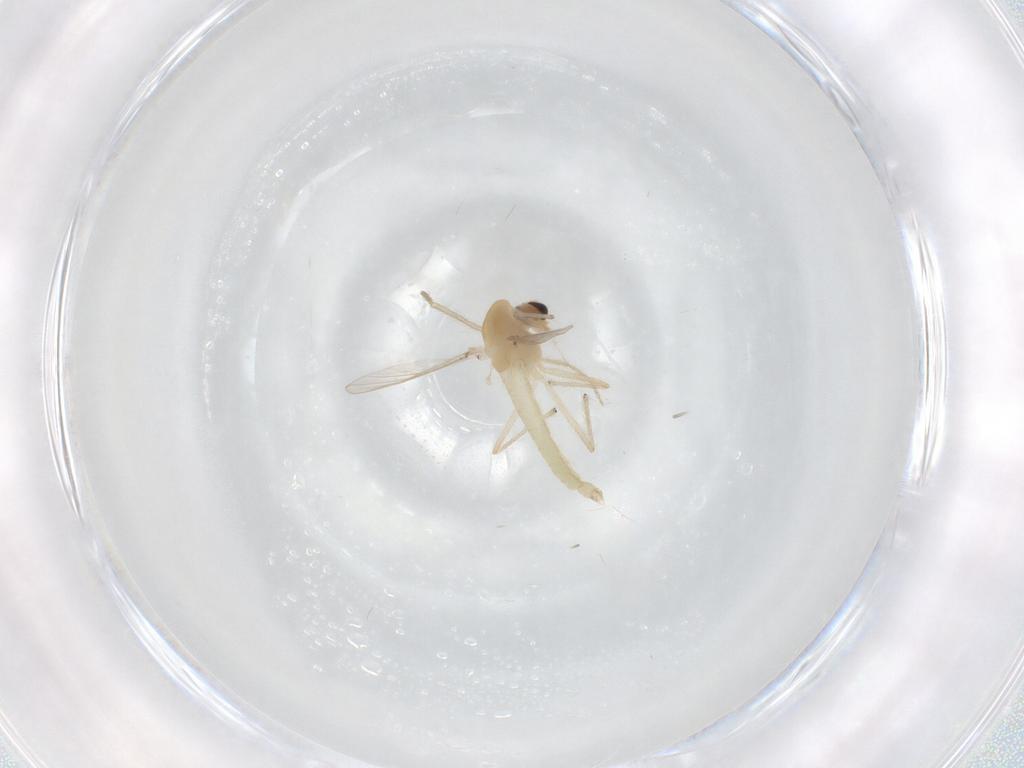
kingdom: Animalia
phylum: Arthropoda
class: Insecta
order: Diptera
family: Chironomidae
